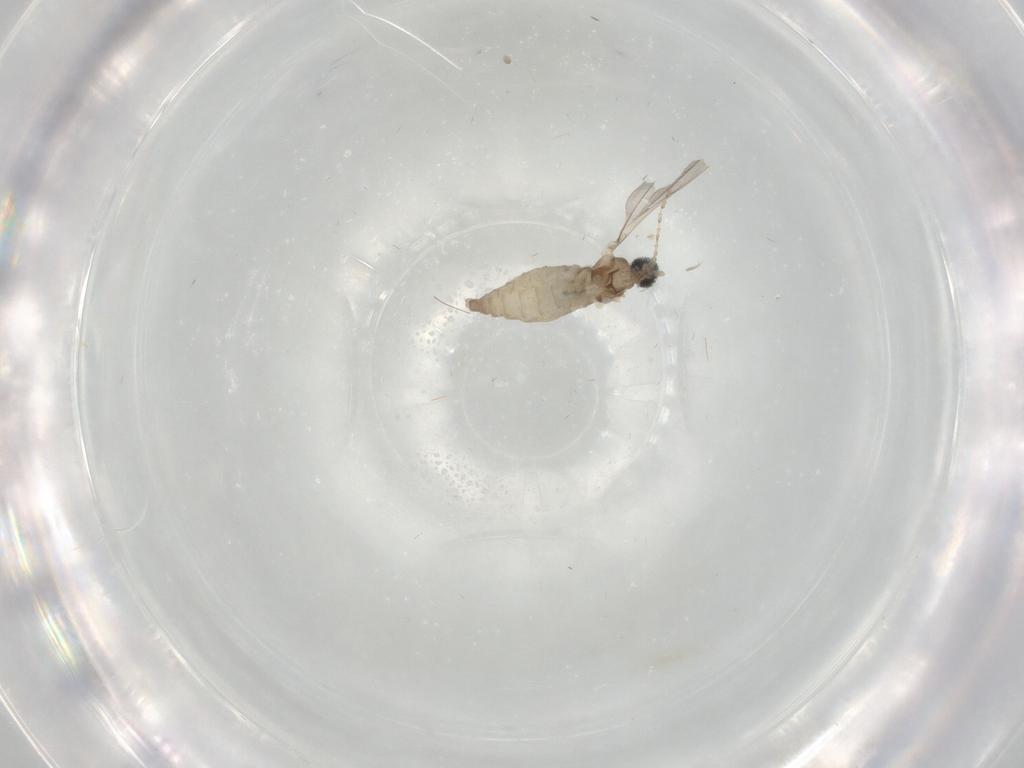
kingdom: Animalia
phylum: Arthropoda
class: Insecta
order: Diptera
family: Cecidomyiidae
